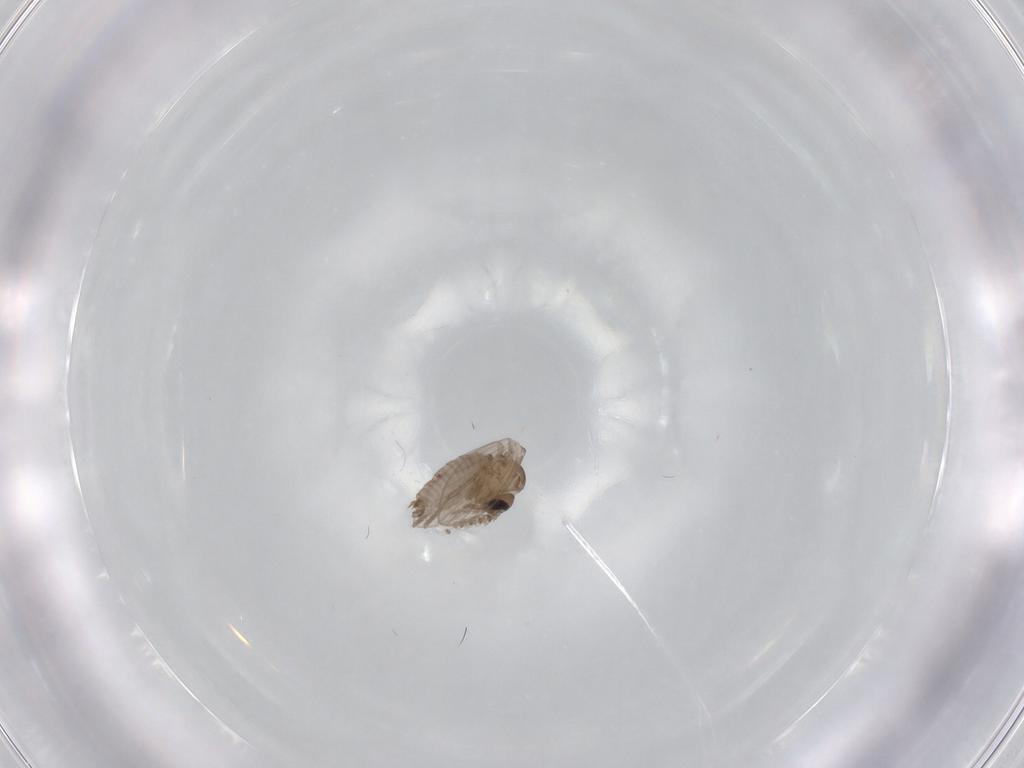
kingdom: Animalia
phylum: Arthropoda
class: Insecta
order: Diptera
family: Psychodidae
